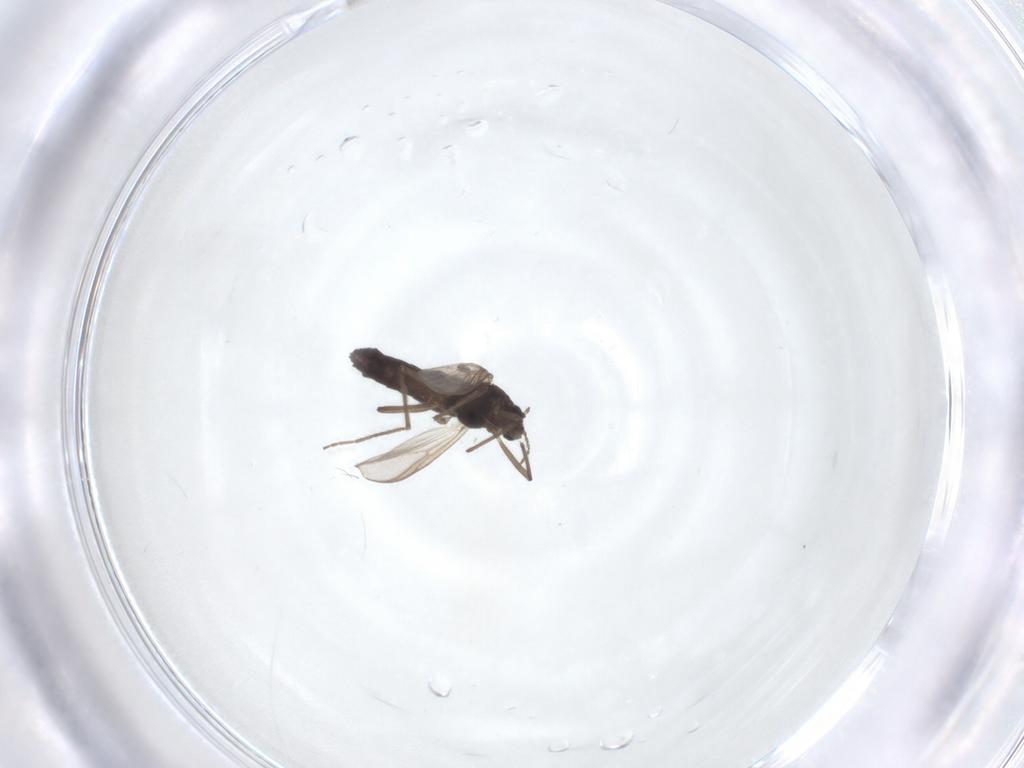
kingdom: Animalia
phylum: Arthropoda
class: Insecta
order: Diptera
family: Chironomidae
